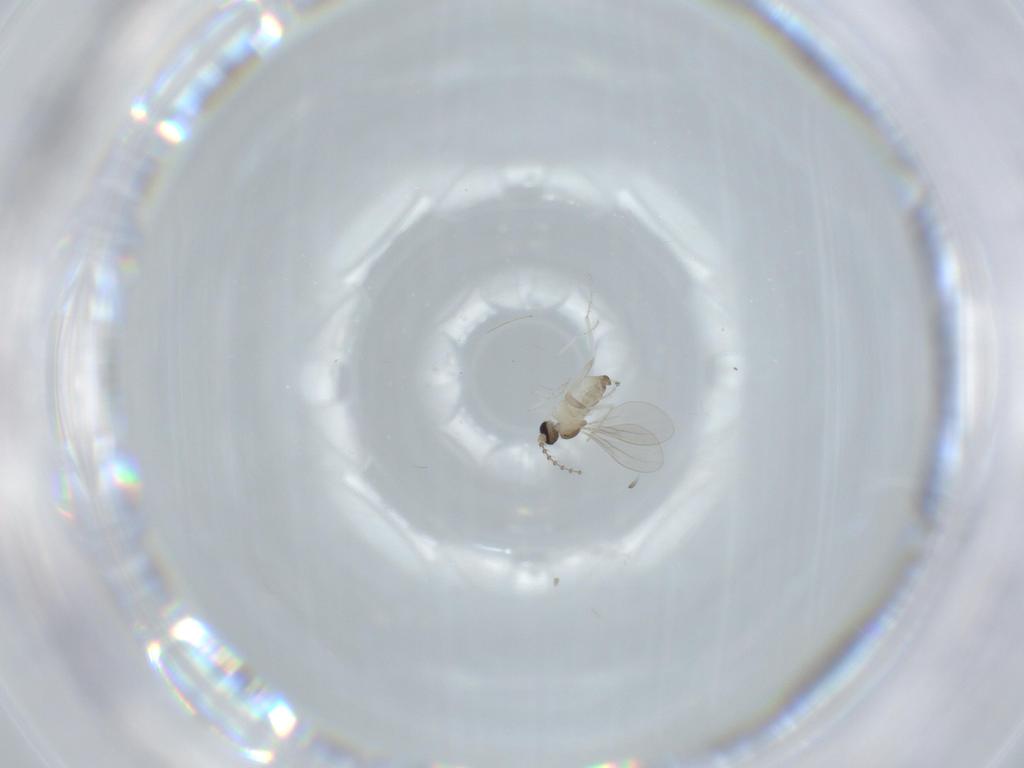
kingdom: Animalia
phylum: Arthropoda
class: Insecta
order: Diptera
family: Cecidomyiidae
